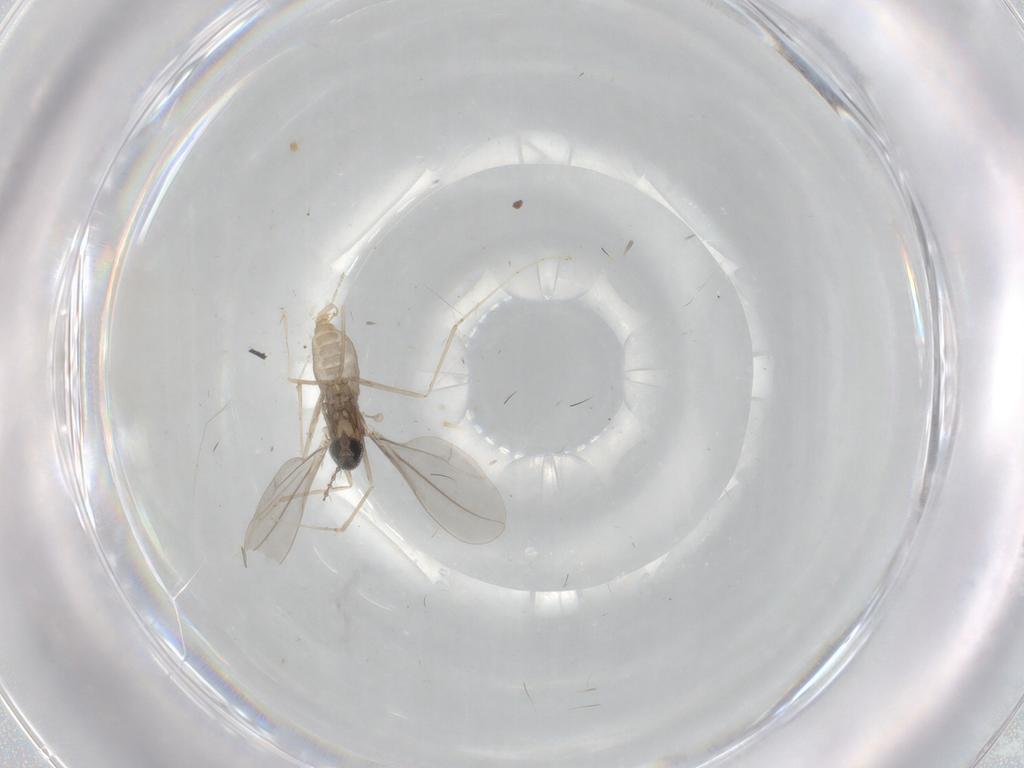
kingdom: Animalia
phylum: Arthropoda
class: Insecta
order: Diptera
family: Cecidomyiidae
